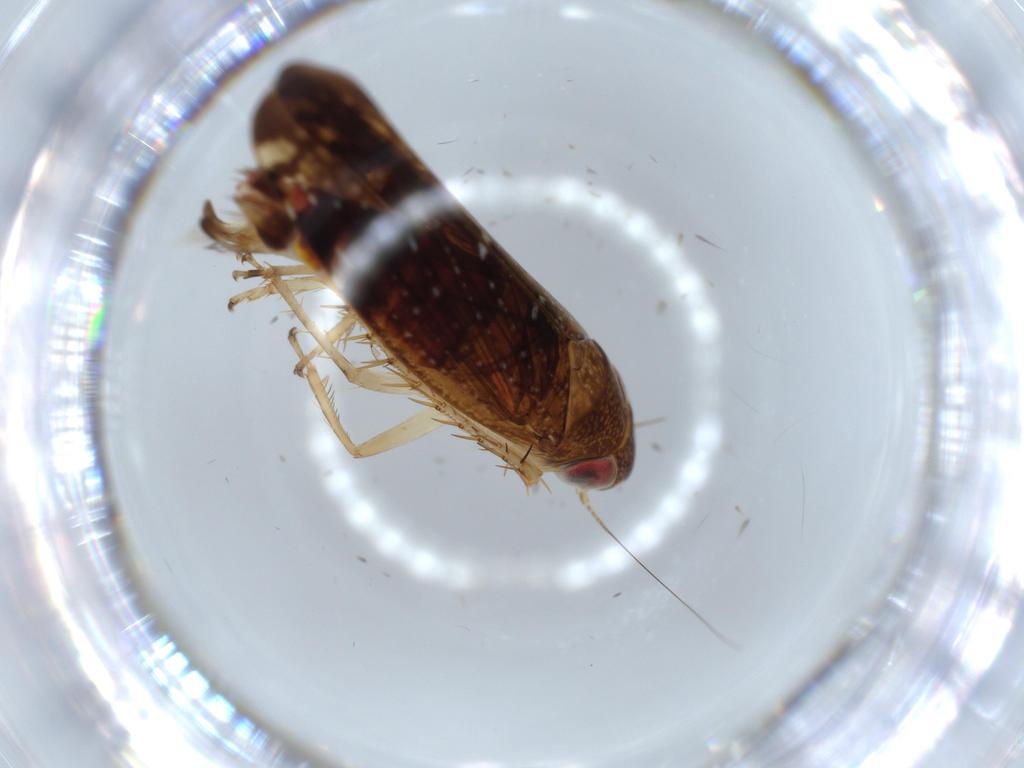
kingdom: Animalia
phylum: Arthropoda
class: Insecta
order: Hemiptera
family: Cicadellidae
